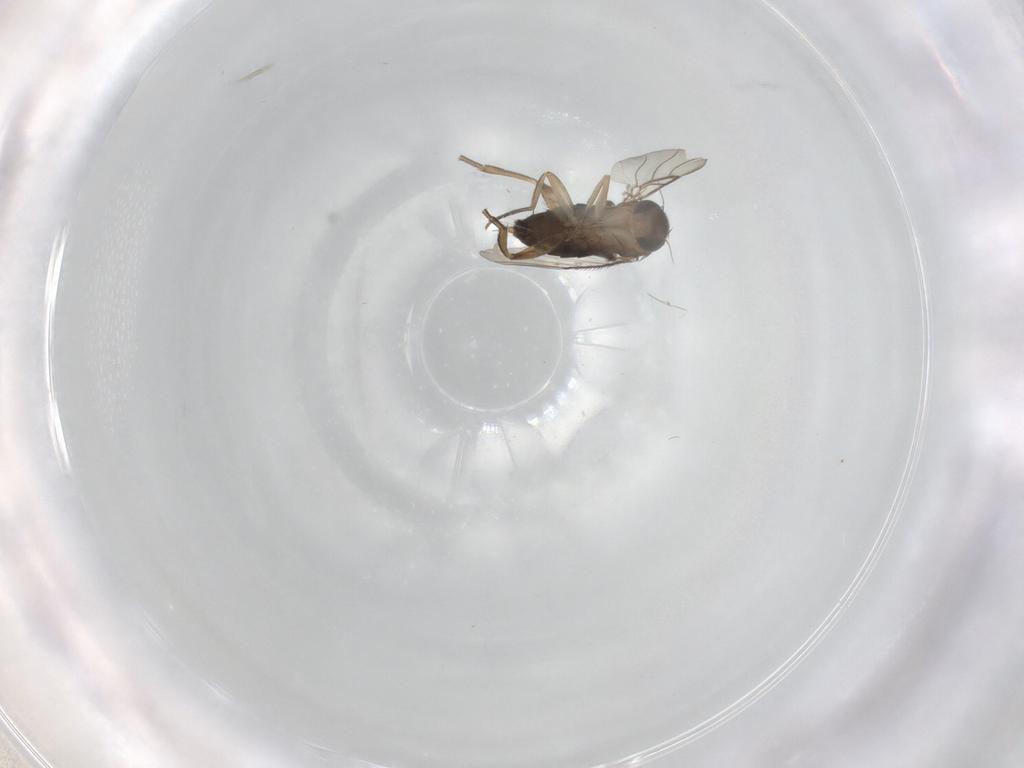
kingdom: Animalia
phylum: Arthropoda
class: Insecta
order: Diptera
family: Phoridae
